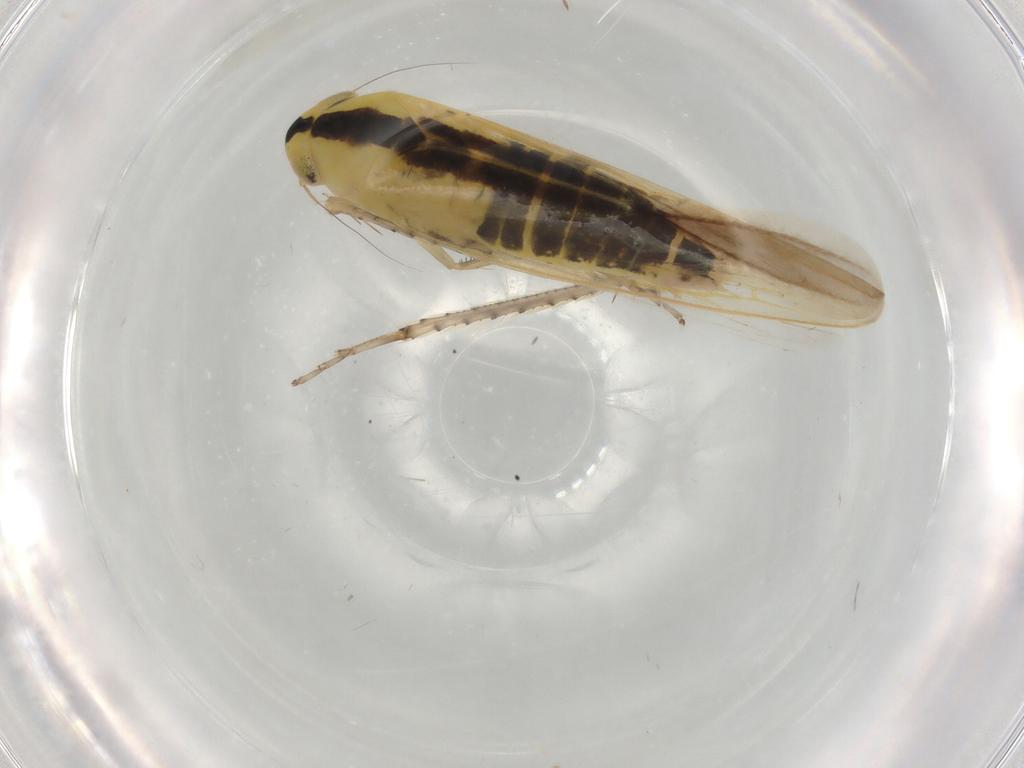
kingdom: Animalia
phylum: Arthropoda
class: Insecta
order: Hemiptera
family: Cicadellidae
